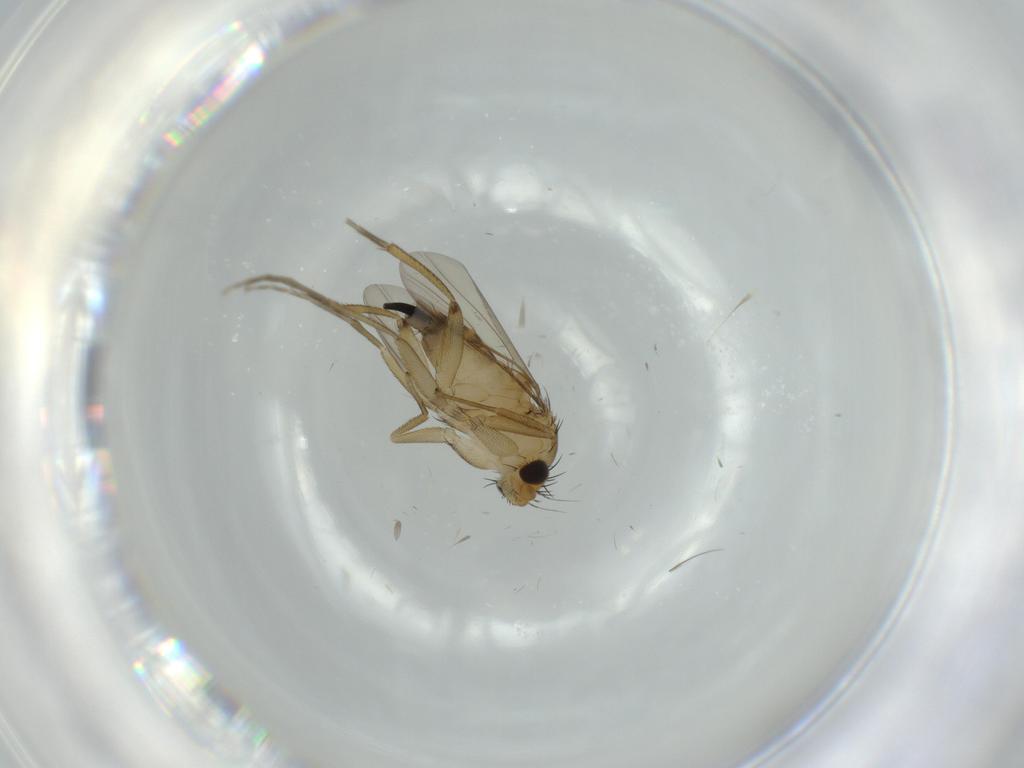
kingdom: Animalia
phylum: Arthropoda
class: Insecta
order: Diptera
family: Phoridae
